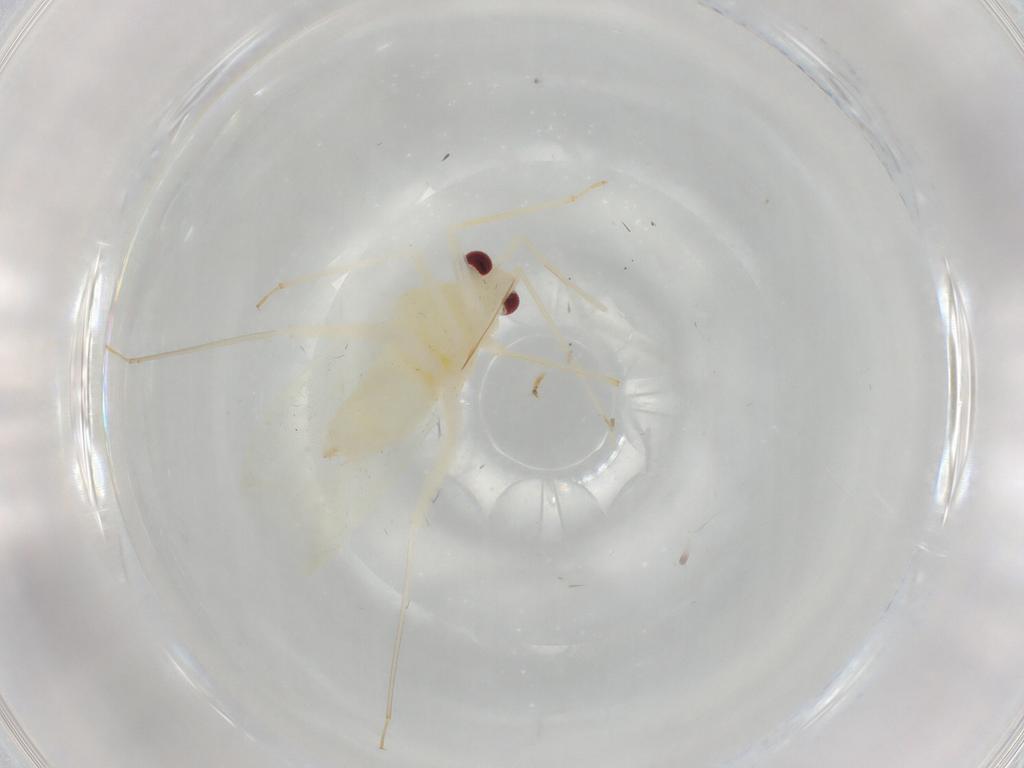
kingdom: Animalia
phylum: Arthropoda
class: Insecta
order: Hemiptera
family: Miridae
